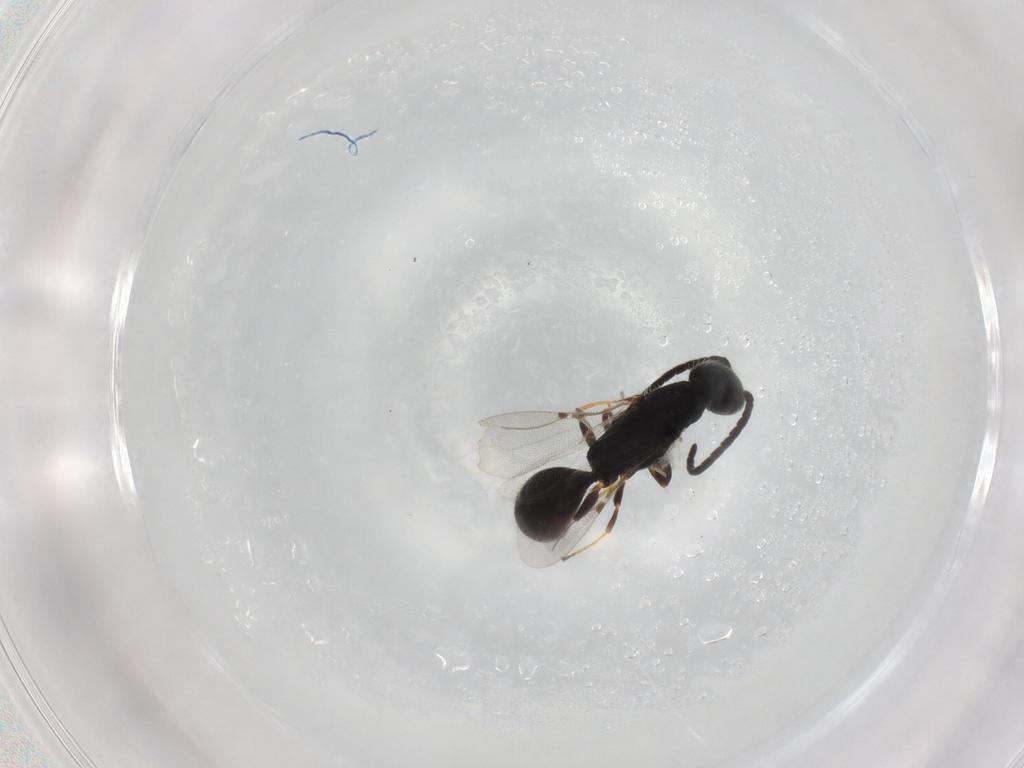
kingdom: Animalia
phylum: Arthropoda
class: Insecta
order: Hymenoptera
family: Bethylidae
